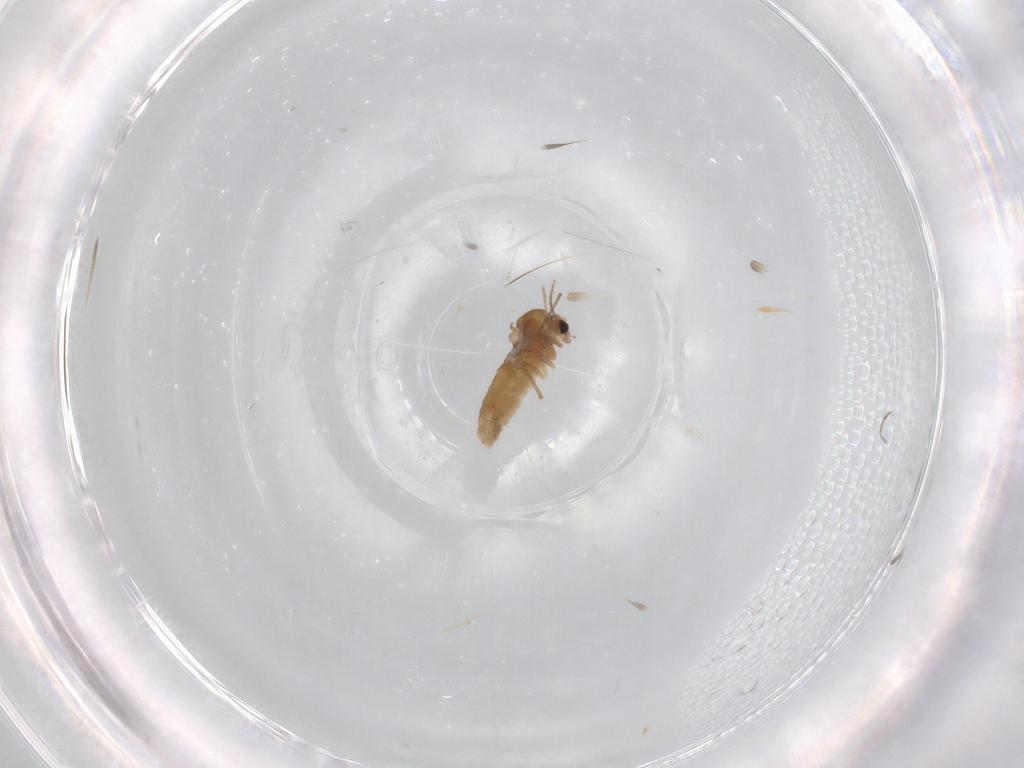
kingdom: Animalia
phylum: Arthropoda
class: Insecta
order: Diptera
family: Chironomidae
